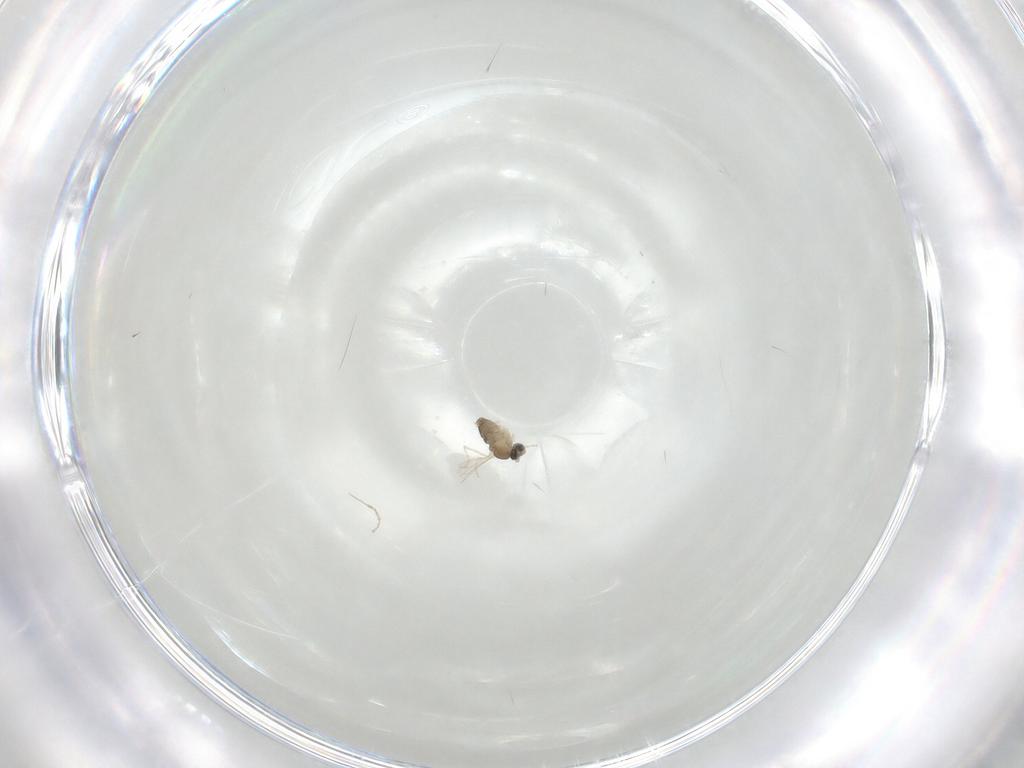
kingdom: Animalia
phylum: Arthropoda
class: Insecta
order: Diptera
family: Cecidomyiidae
